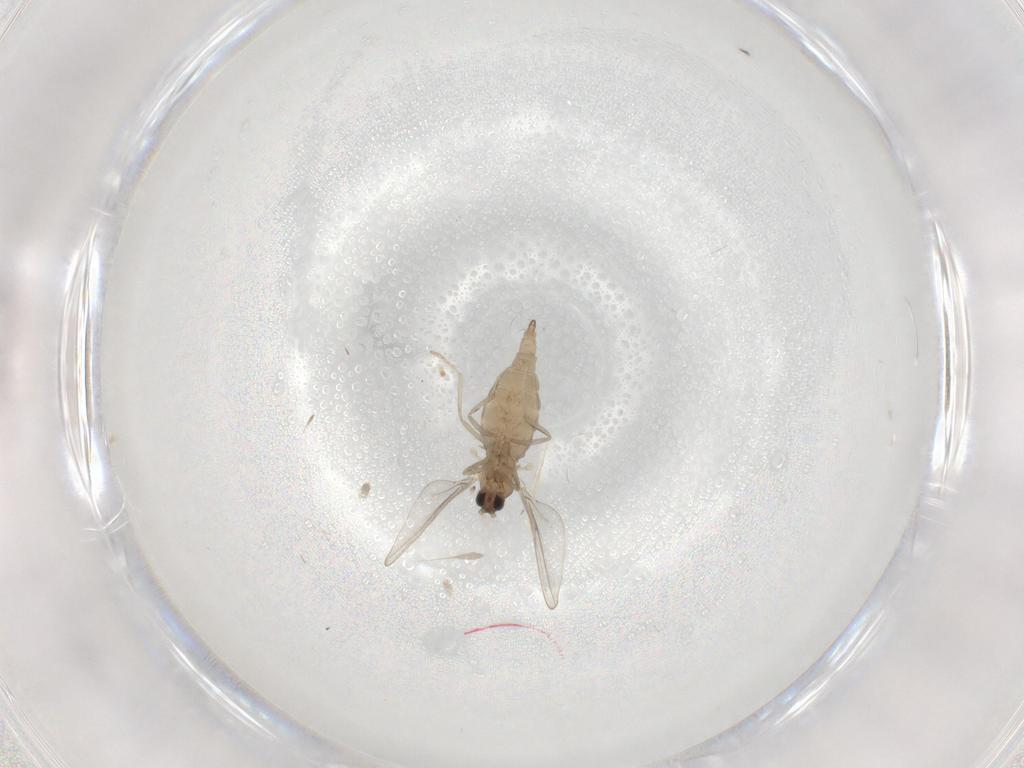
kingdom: Animalia
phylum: Arthropoda
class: Insecta
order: Diptera
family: Cecidomyiidae
